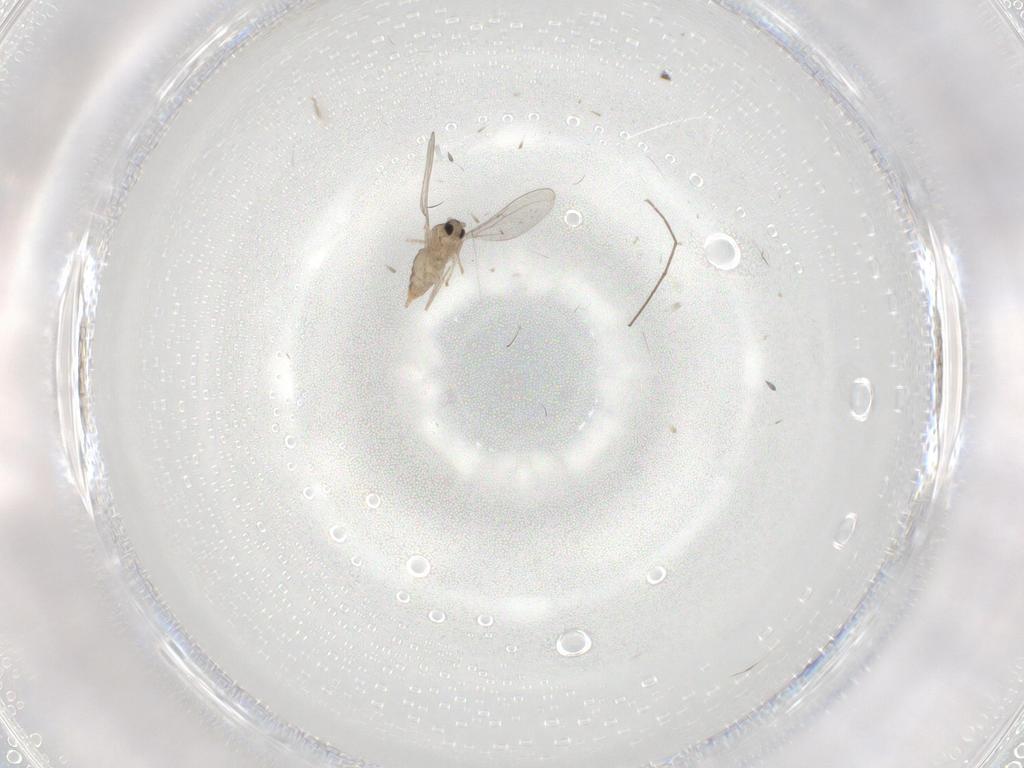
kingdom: Animalia
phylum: Arthropoda
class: Insecta
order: Diptera
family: Cecidomyiidae
